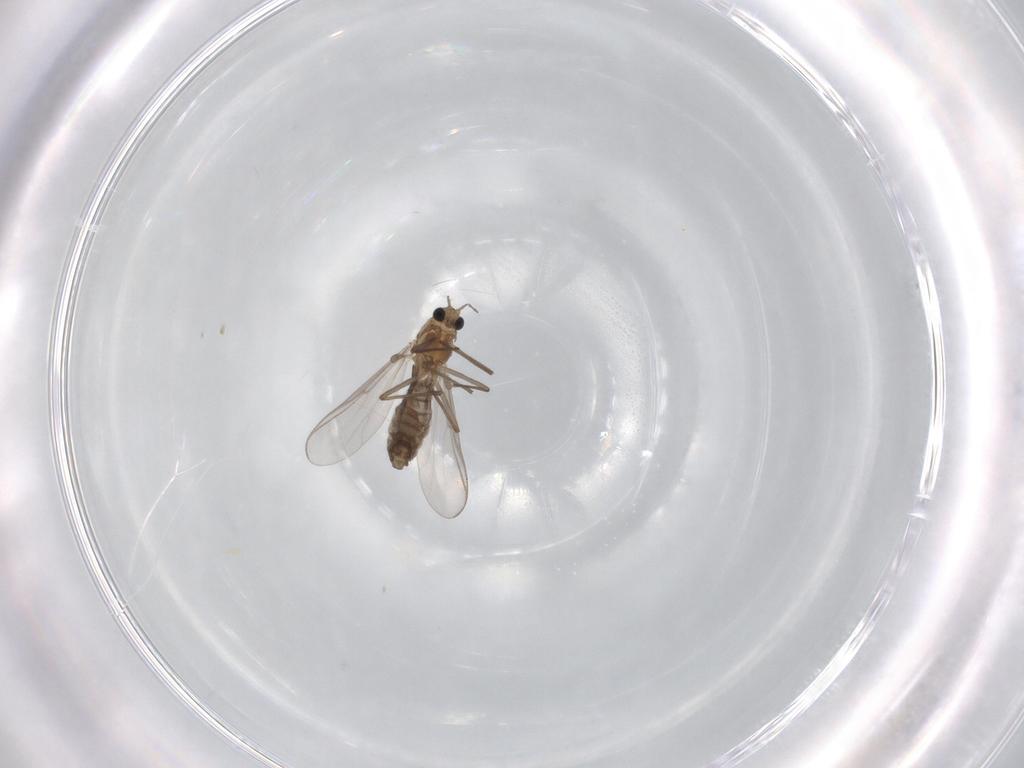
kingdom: Animalia
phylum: Arthropoda
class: Insecta
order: Diptera
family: Chironomidae
